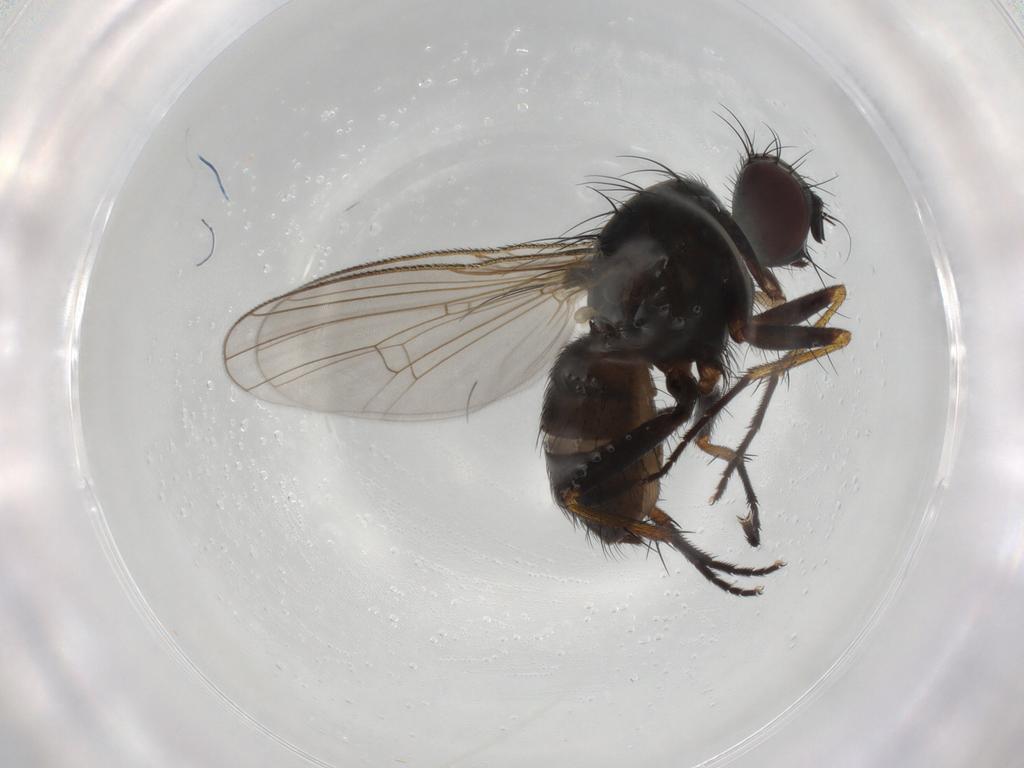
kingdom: Animalia
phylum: Arthropoda
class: Insecta
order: Diptera
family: Muscidae
